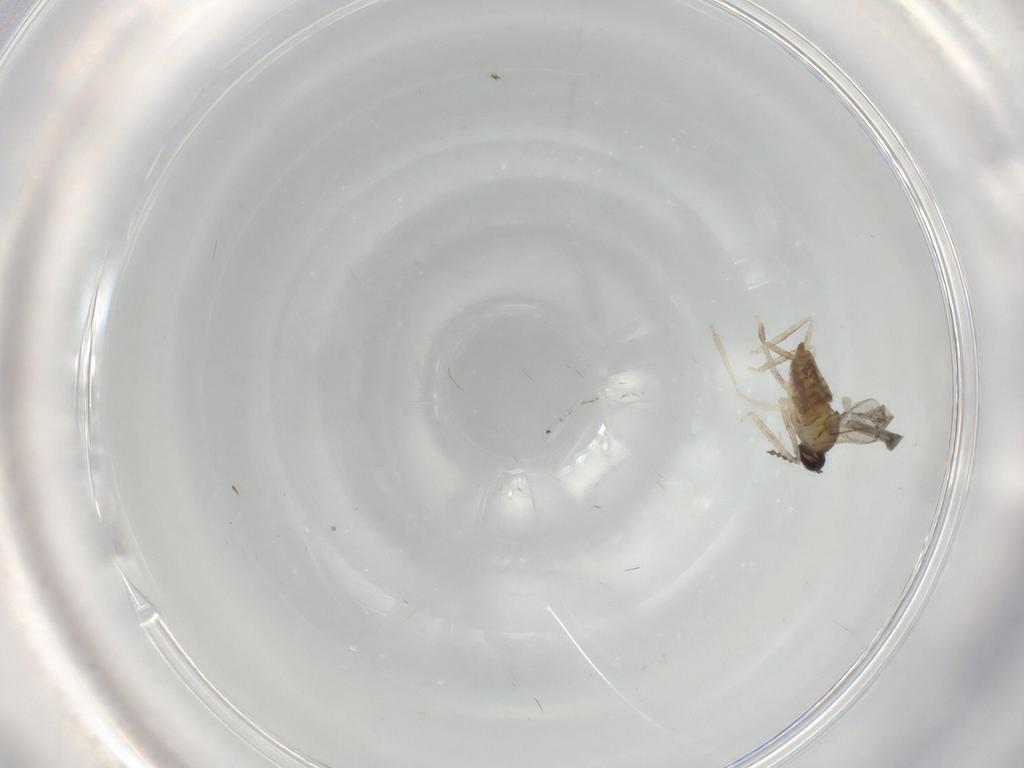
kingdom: Animalia
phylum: Arthropoda
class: Insecta
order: Diptera
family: Cecidomyiidae
